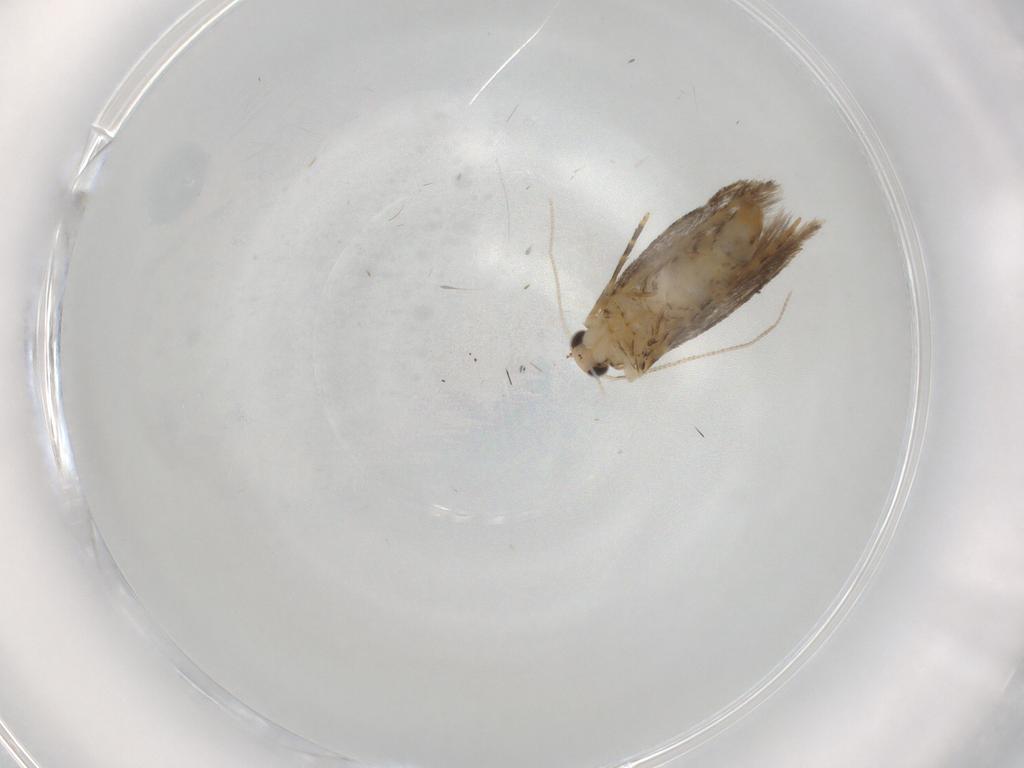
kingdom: Animalia
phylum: Arthropoda
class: Insecta
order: Lepidoptera
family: Tineidae
